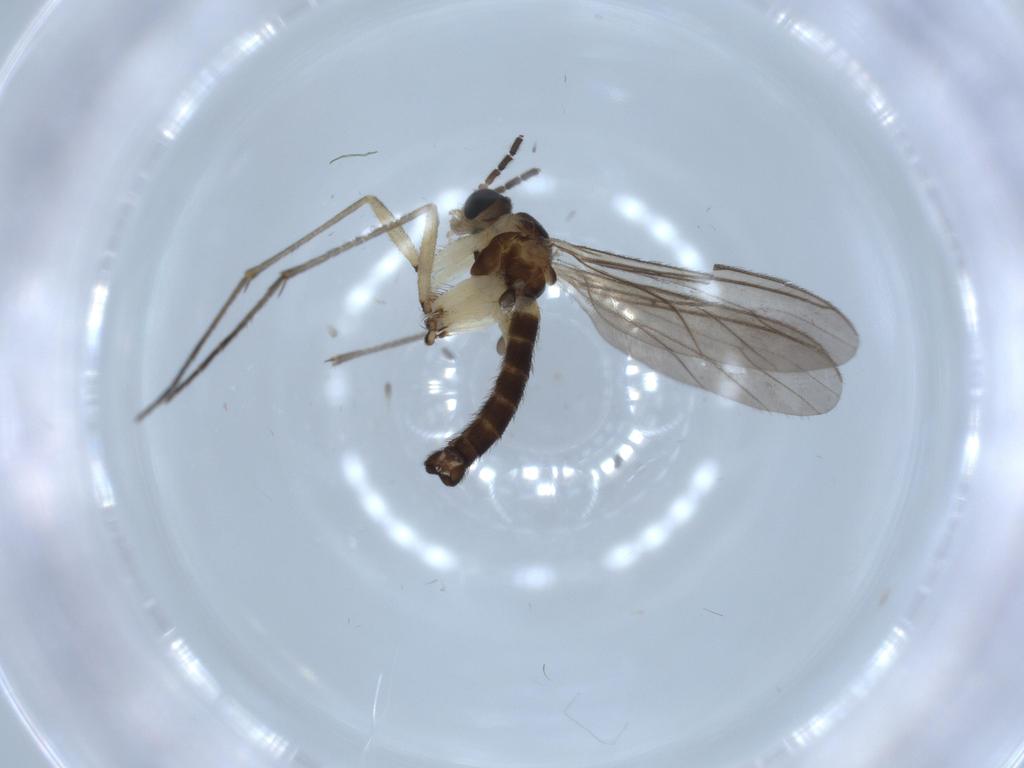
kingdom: Animalia
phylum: Arthropoda
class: Insecta
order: Diptera
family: Sciaridae
